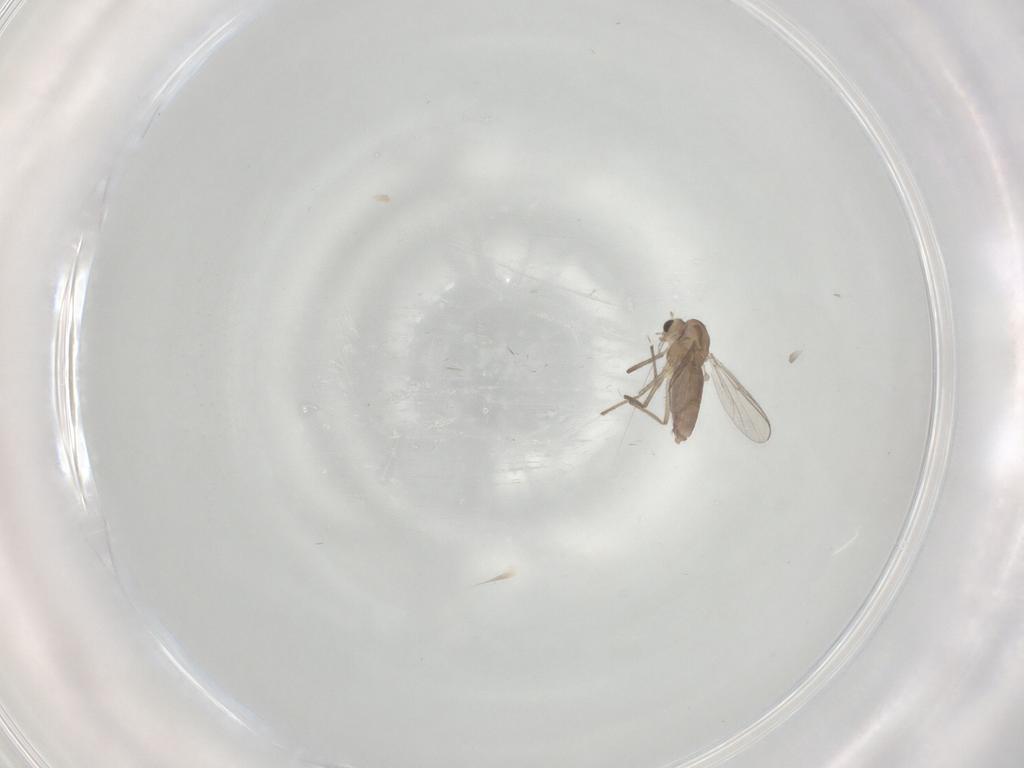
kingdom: Animalia
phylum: Arthropoda
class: Insecta
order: Diptera
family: Chironomidae
